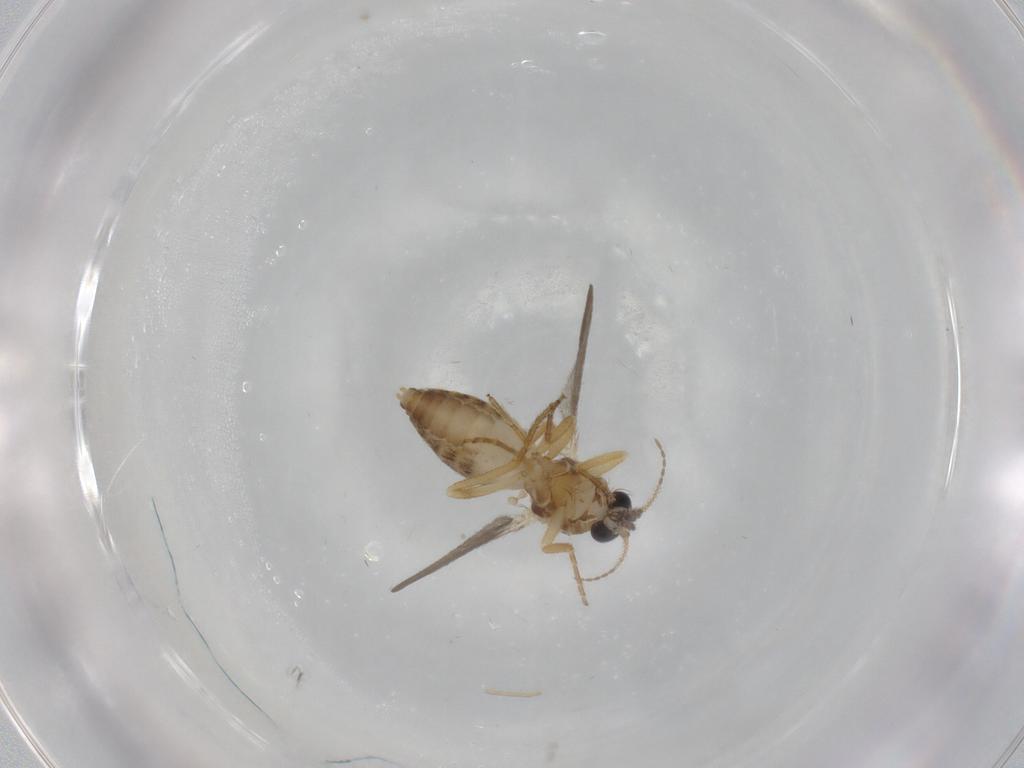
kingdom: Animalia
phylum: Arthropoda
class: Insecta
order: Diptera
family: Ceratopogonidae
